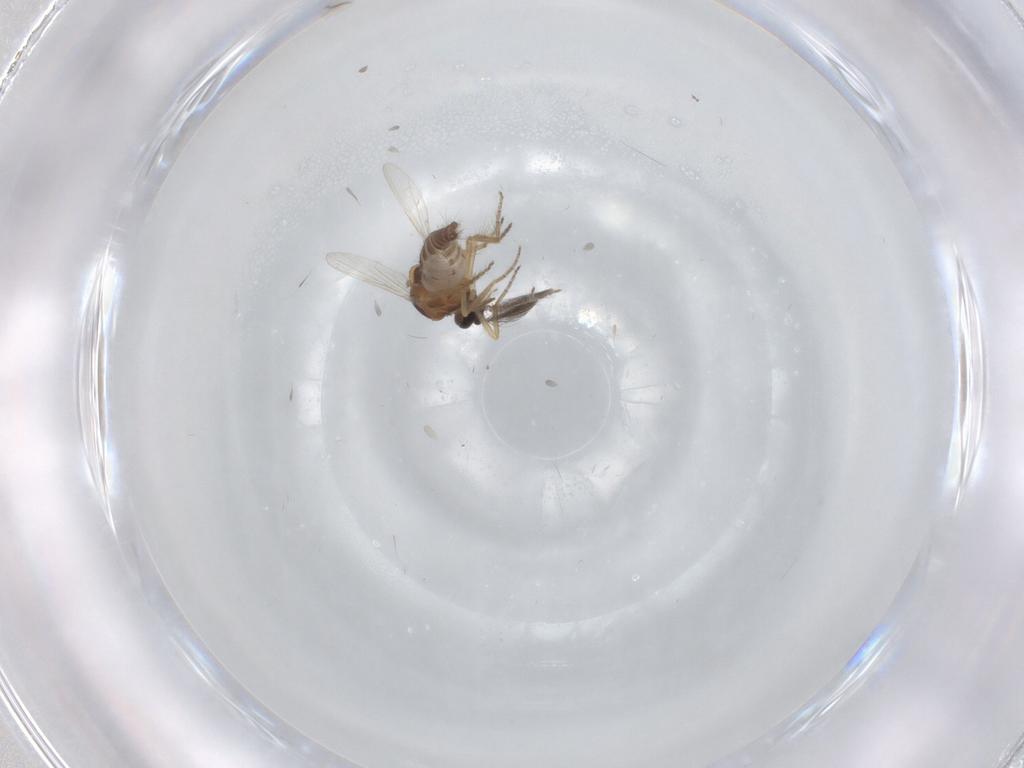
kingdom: Animalia
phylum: Arthropoda
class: Insecta
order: Diptera
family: Ceratopogonidae
